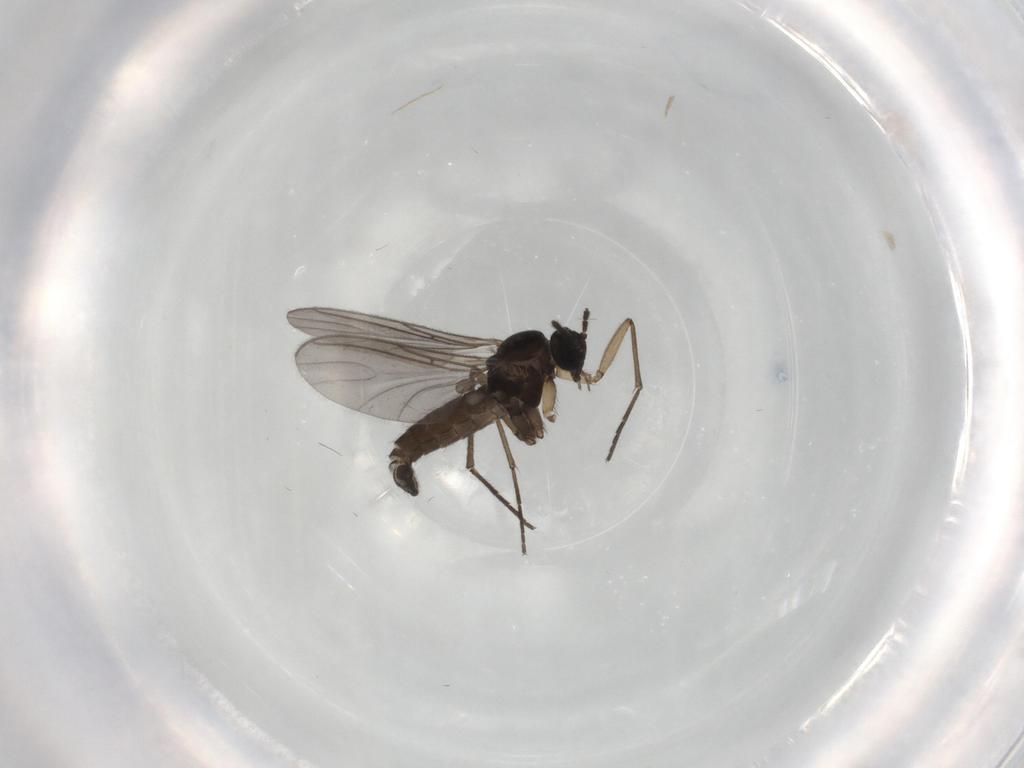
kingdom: Animalia
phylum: Arthropoda
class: Insecta
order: Diptera
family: Sciaridae
